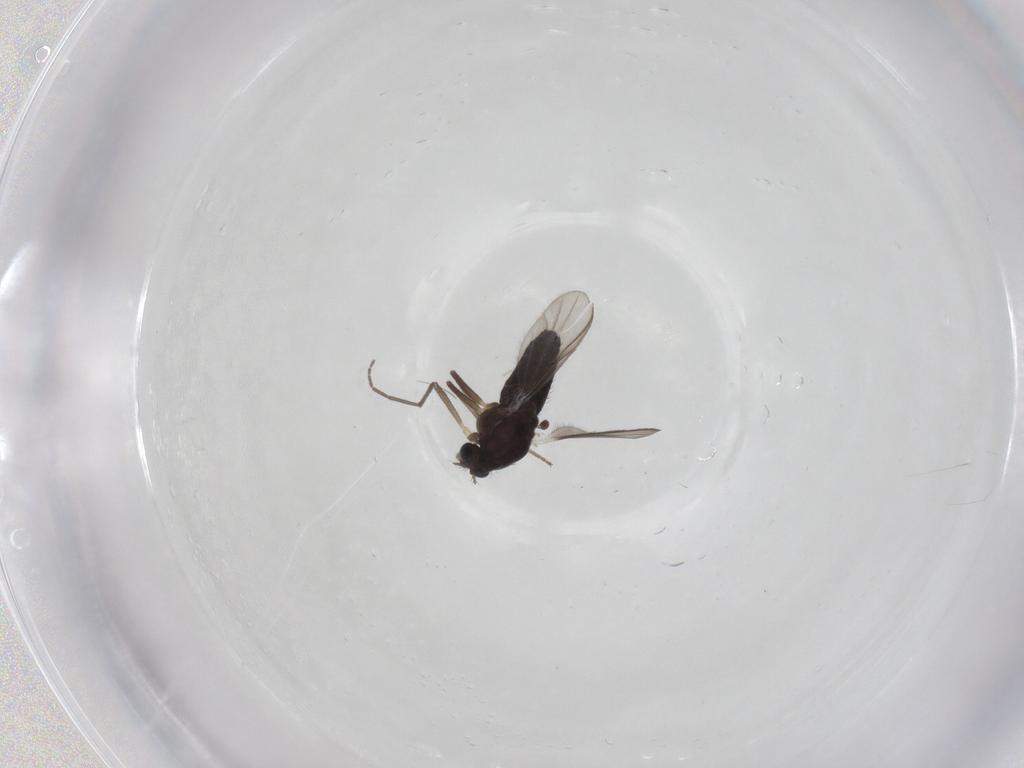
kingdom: Animalia
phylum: Arthropoda
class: Insecta
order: Diptera
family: Chironomidae
